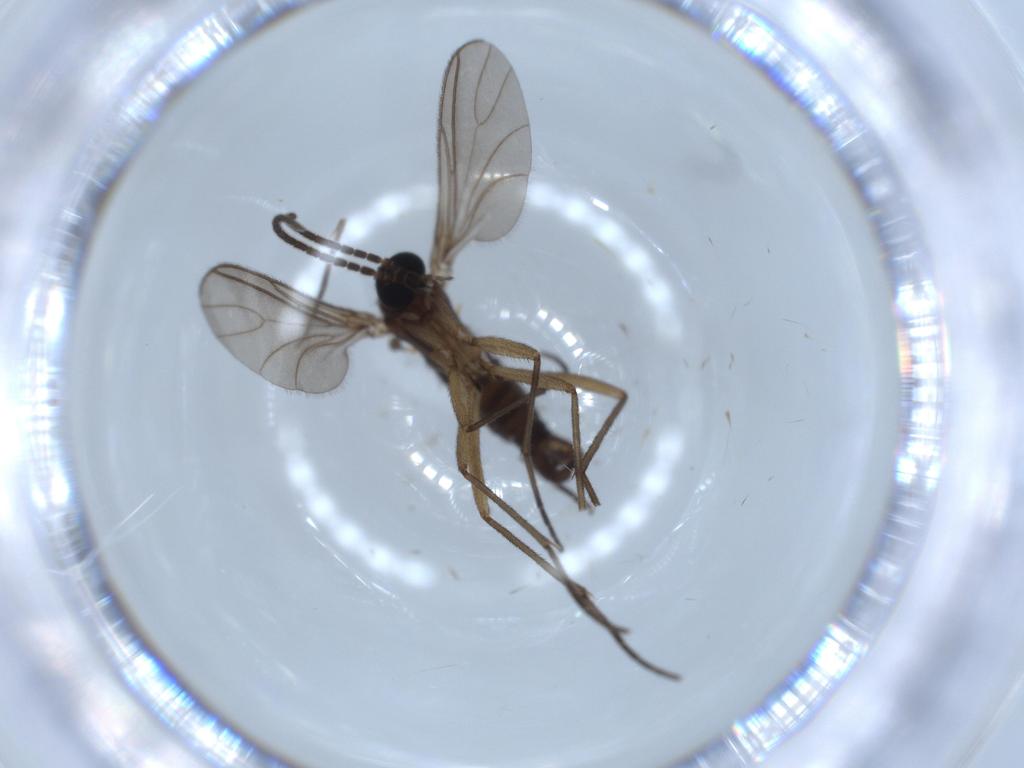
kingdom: Animalia
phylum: Arthropoda
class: Insecta
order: Diptera
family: Sciaridae
